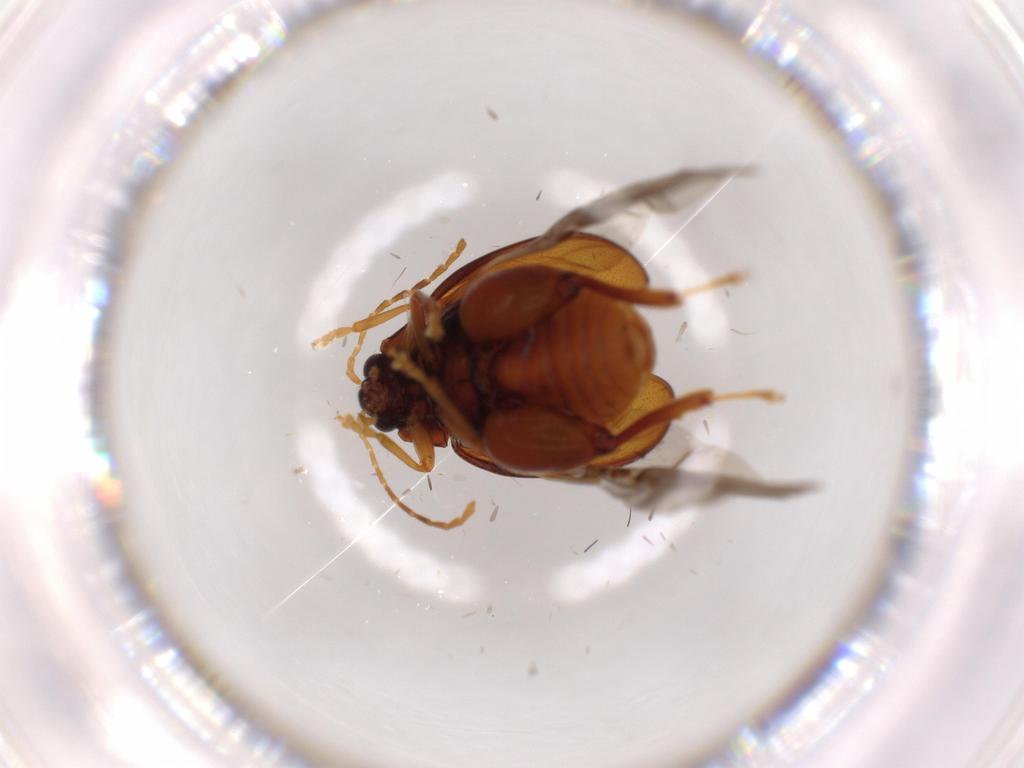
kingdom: Animalia
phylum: Arthropoda
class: Insecta
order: Coleoptera
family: Chrysomelidae
